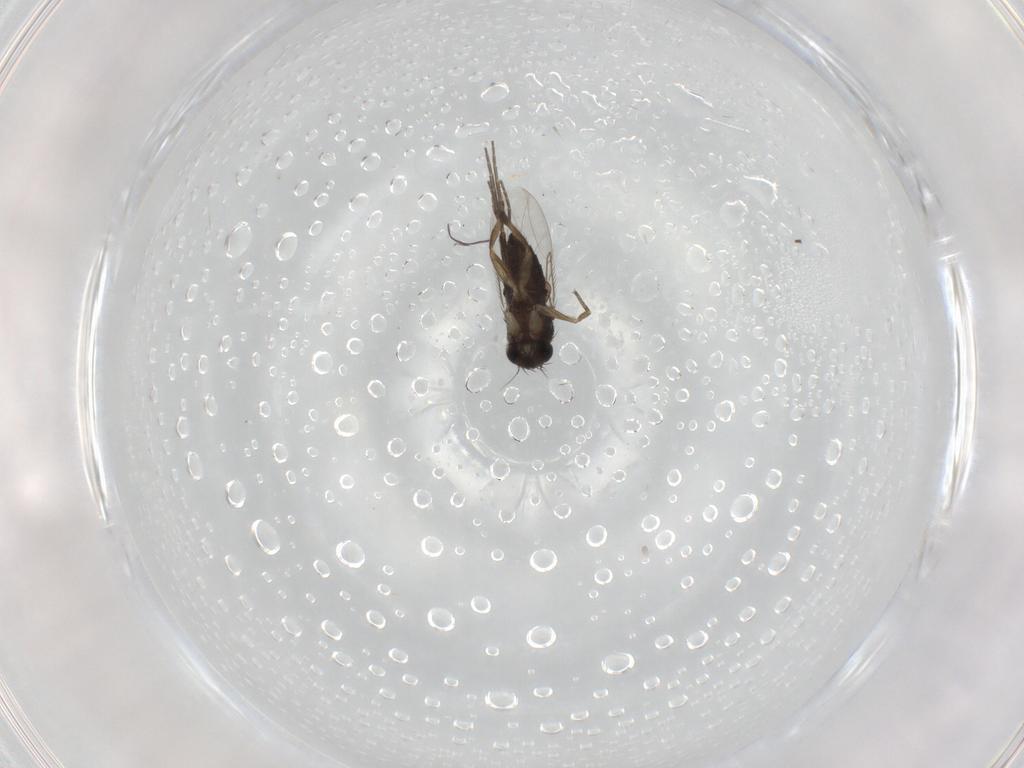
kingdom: Animalia
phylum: Arthropoda
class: Insecta
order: Diptera
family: Phoridae
